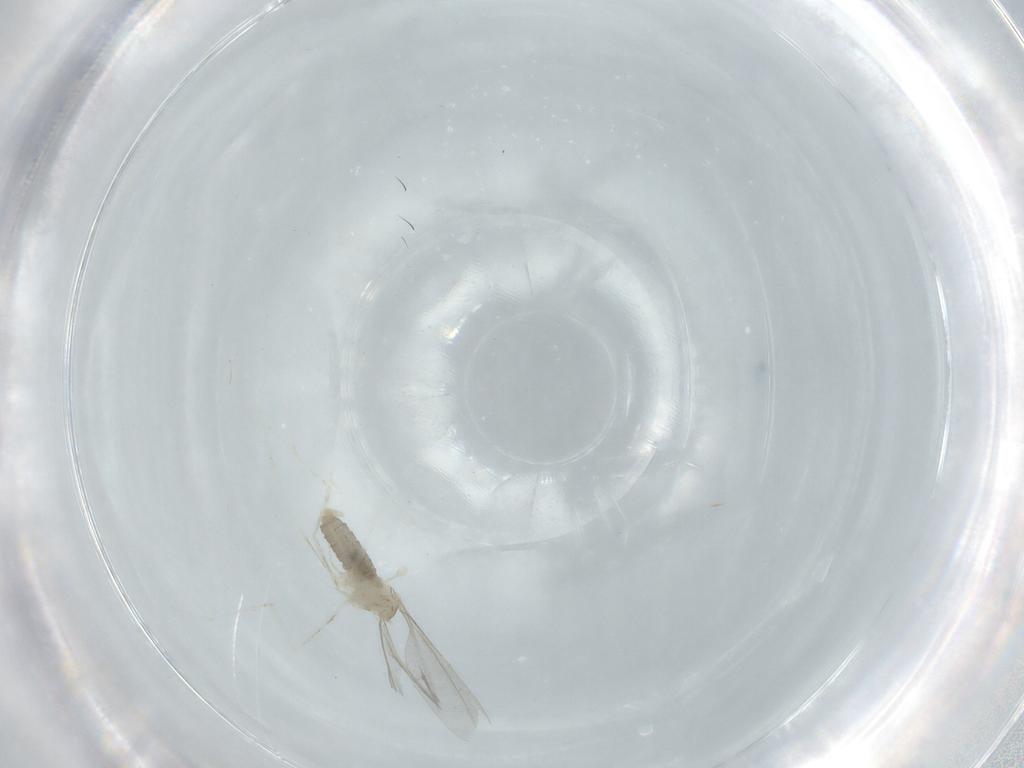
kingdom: Animalia
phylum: Arthropoda
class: Insecta
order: Diptera
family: Cecidomyiidae
